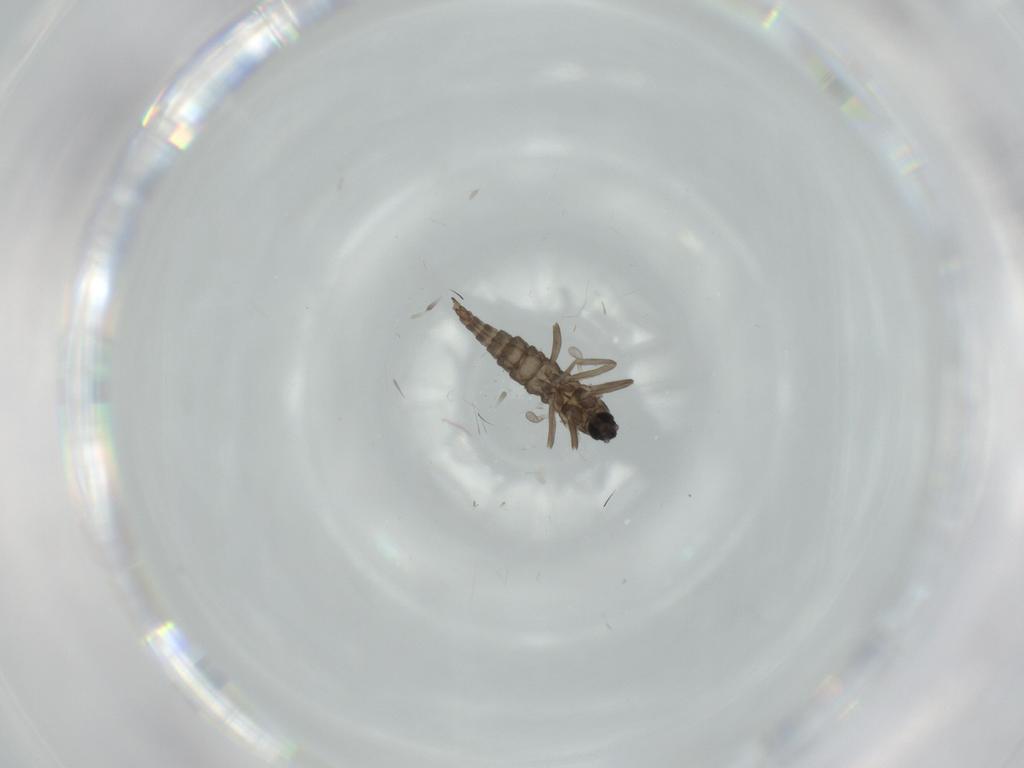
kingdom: Animalia
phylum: Arthropoda
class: Insecta
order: Diptera
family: Cecidomyiidae
